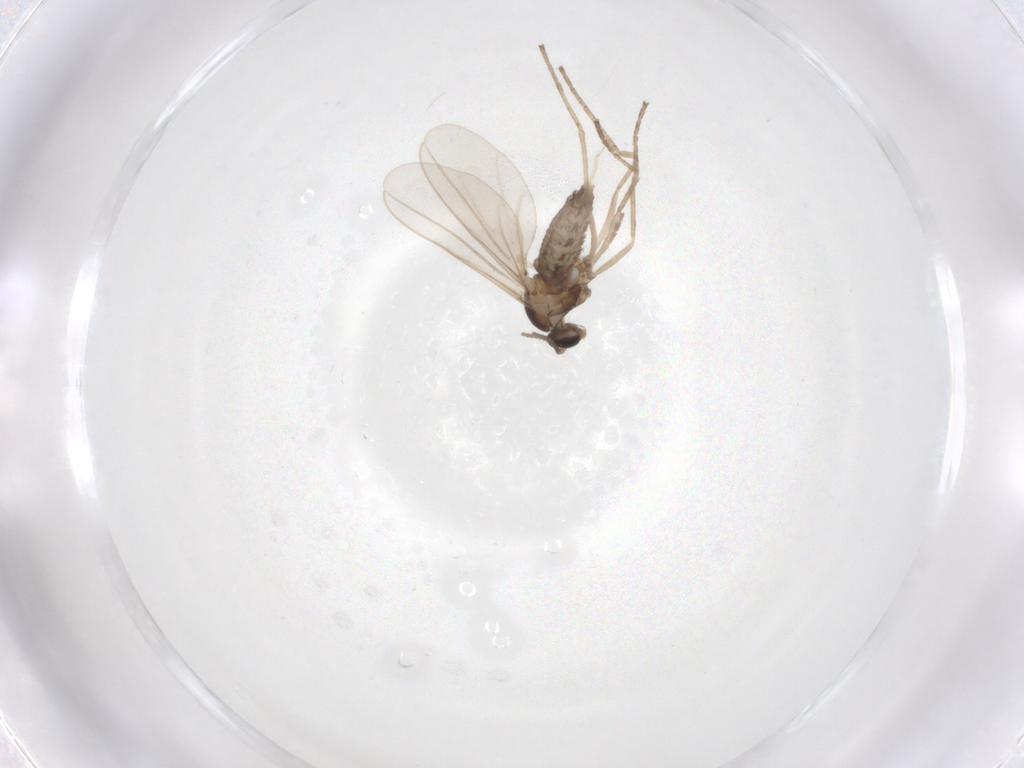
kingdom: Animalia
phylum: Arthropoda
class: Insecta
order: Diptera
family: Cecidomyiidae
